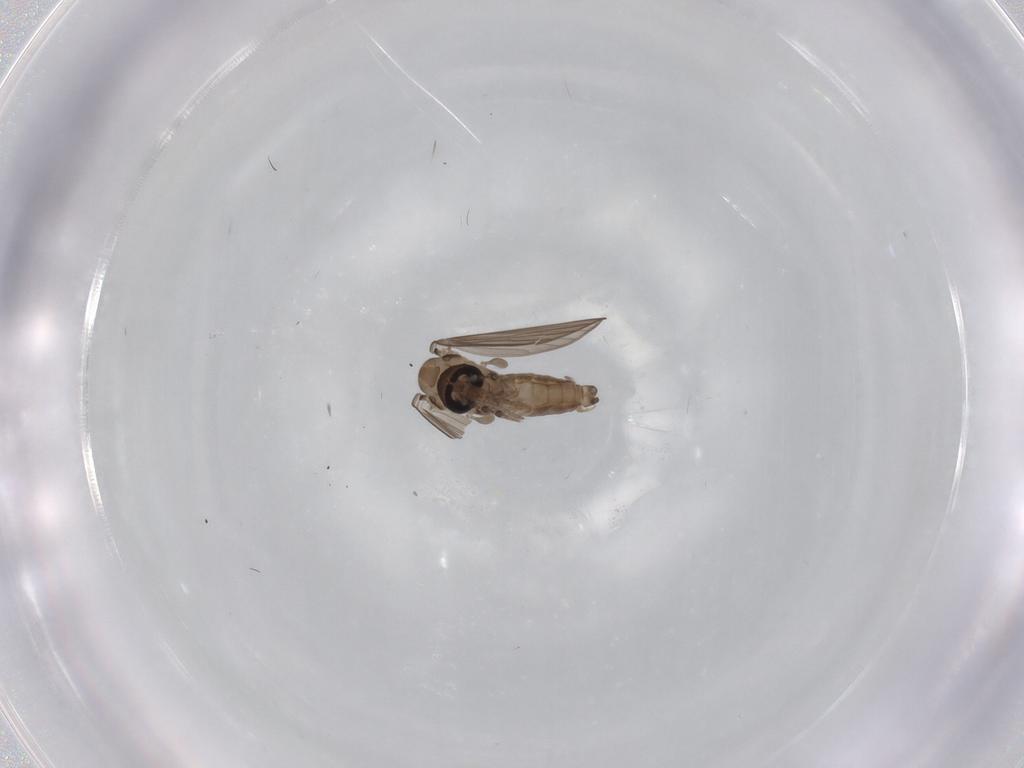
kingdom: Animalia
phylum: Arthropoda
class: Insecta
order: Diptera
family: Psychodidae
